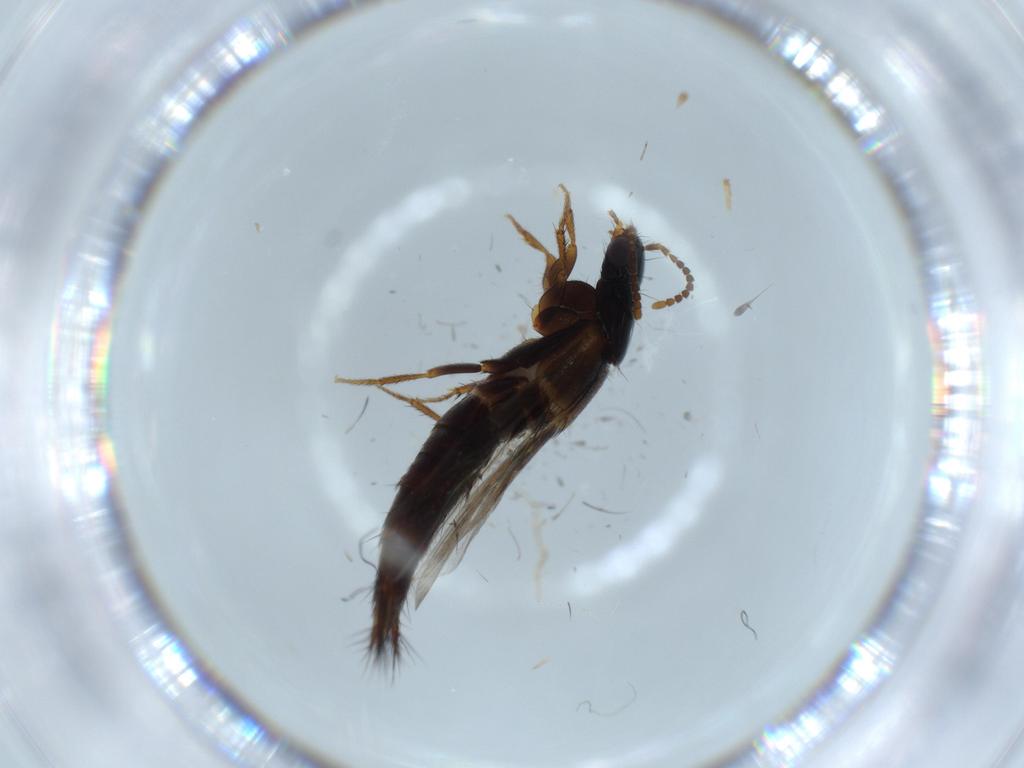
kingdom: Animalia
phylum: Arthropoda
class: Insecta
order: Coleoptera
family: Staphylinidae
